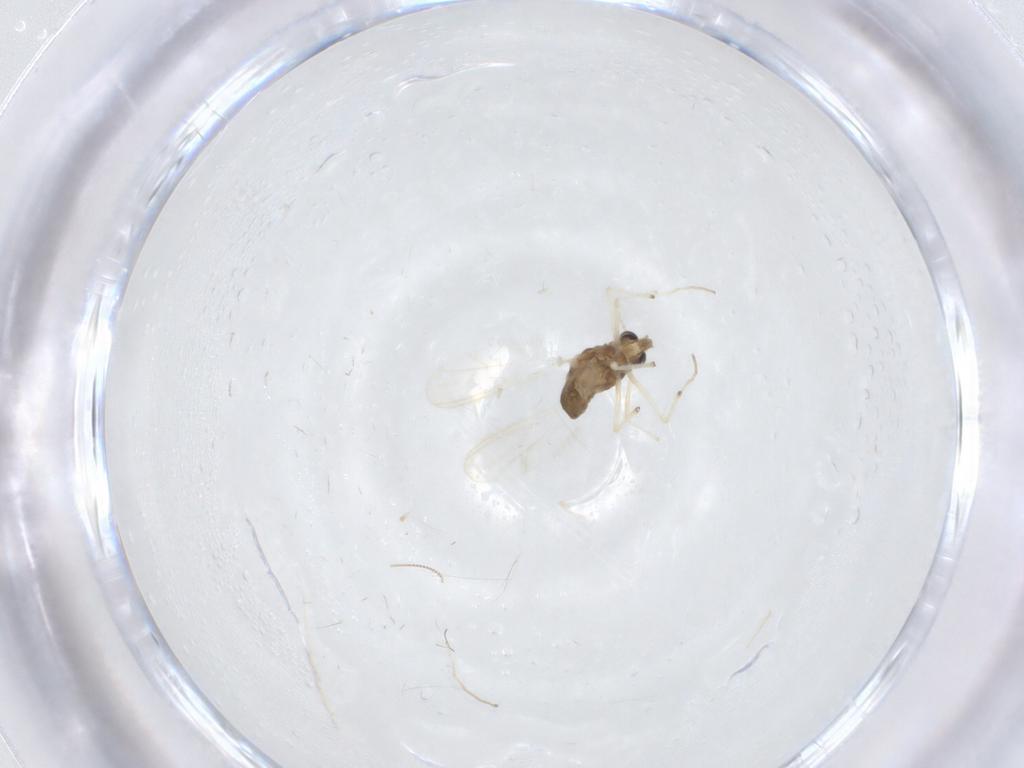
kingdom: Animalia
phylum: Arthropoda
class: Insecta
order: Diptera
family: Chironomidae
